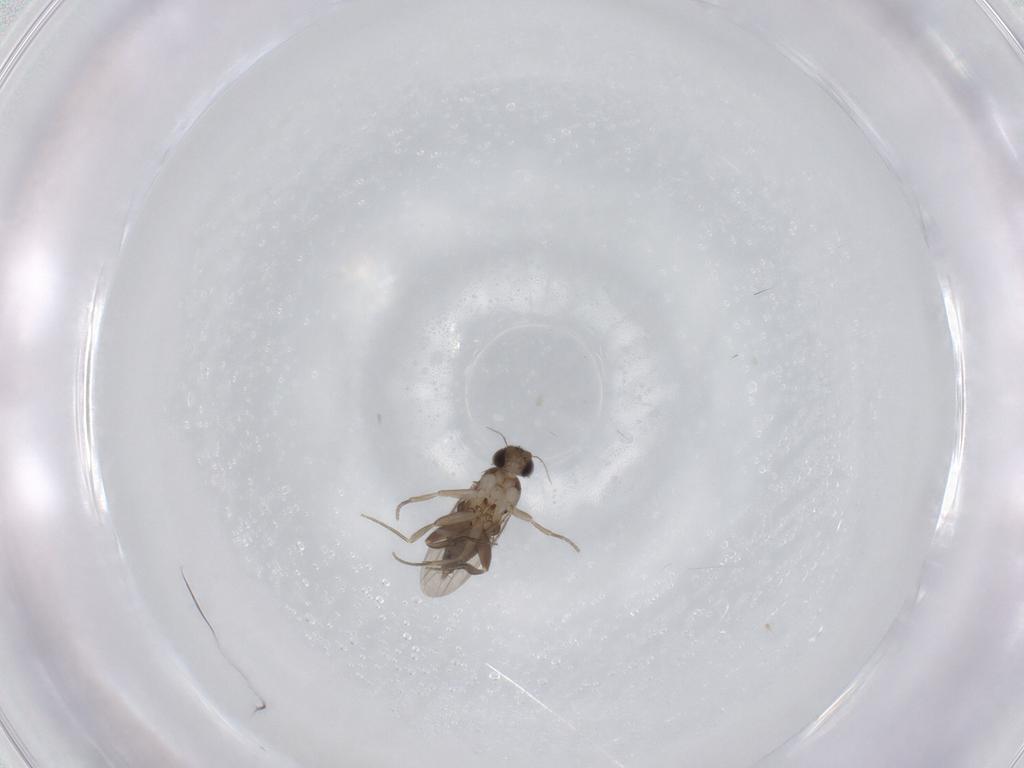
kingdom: Animalia
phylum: Arthropoda
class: Insecta
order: Diptera
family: Phoridae
